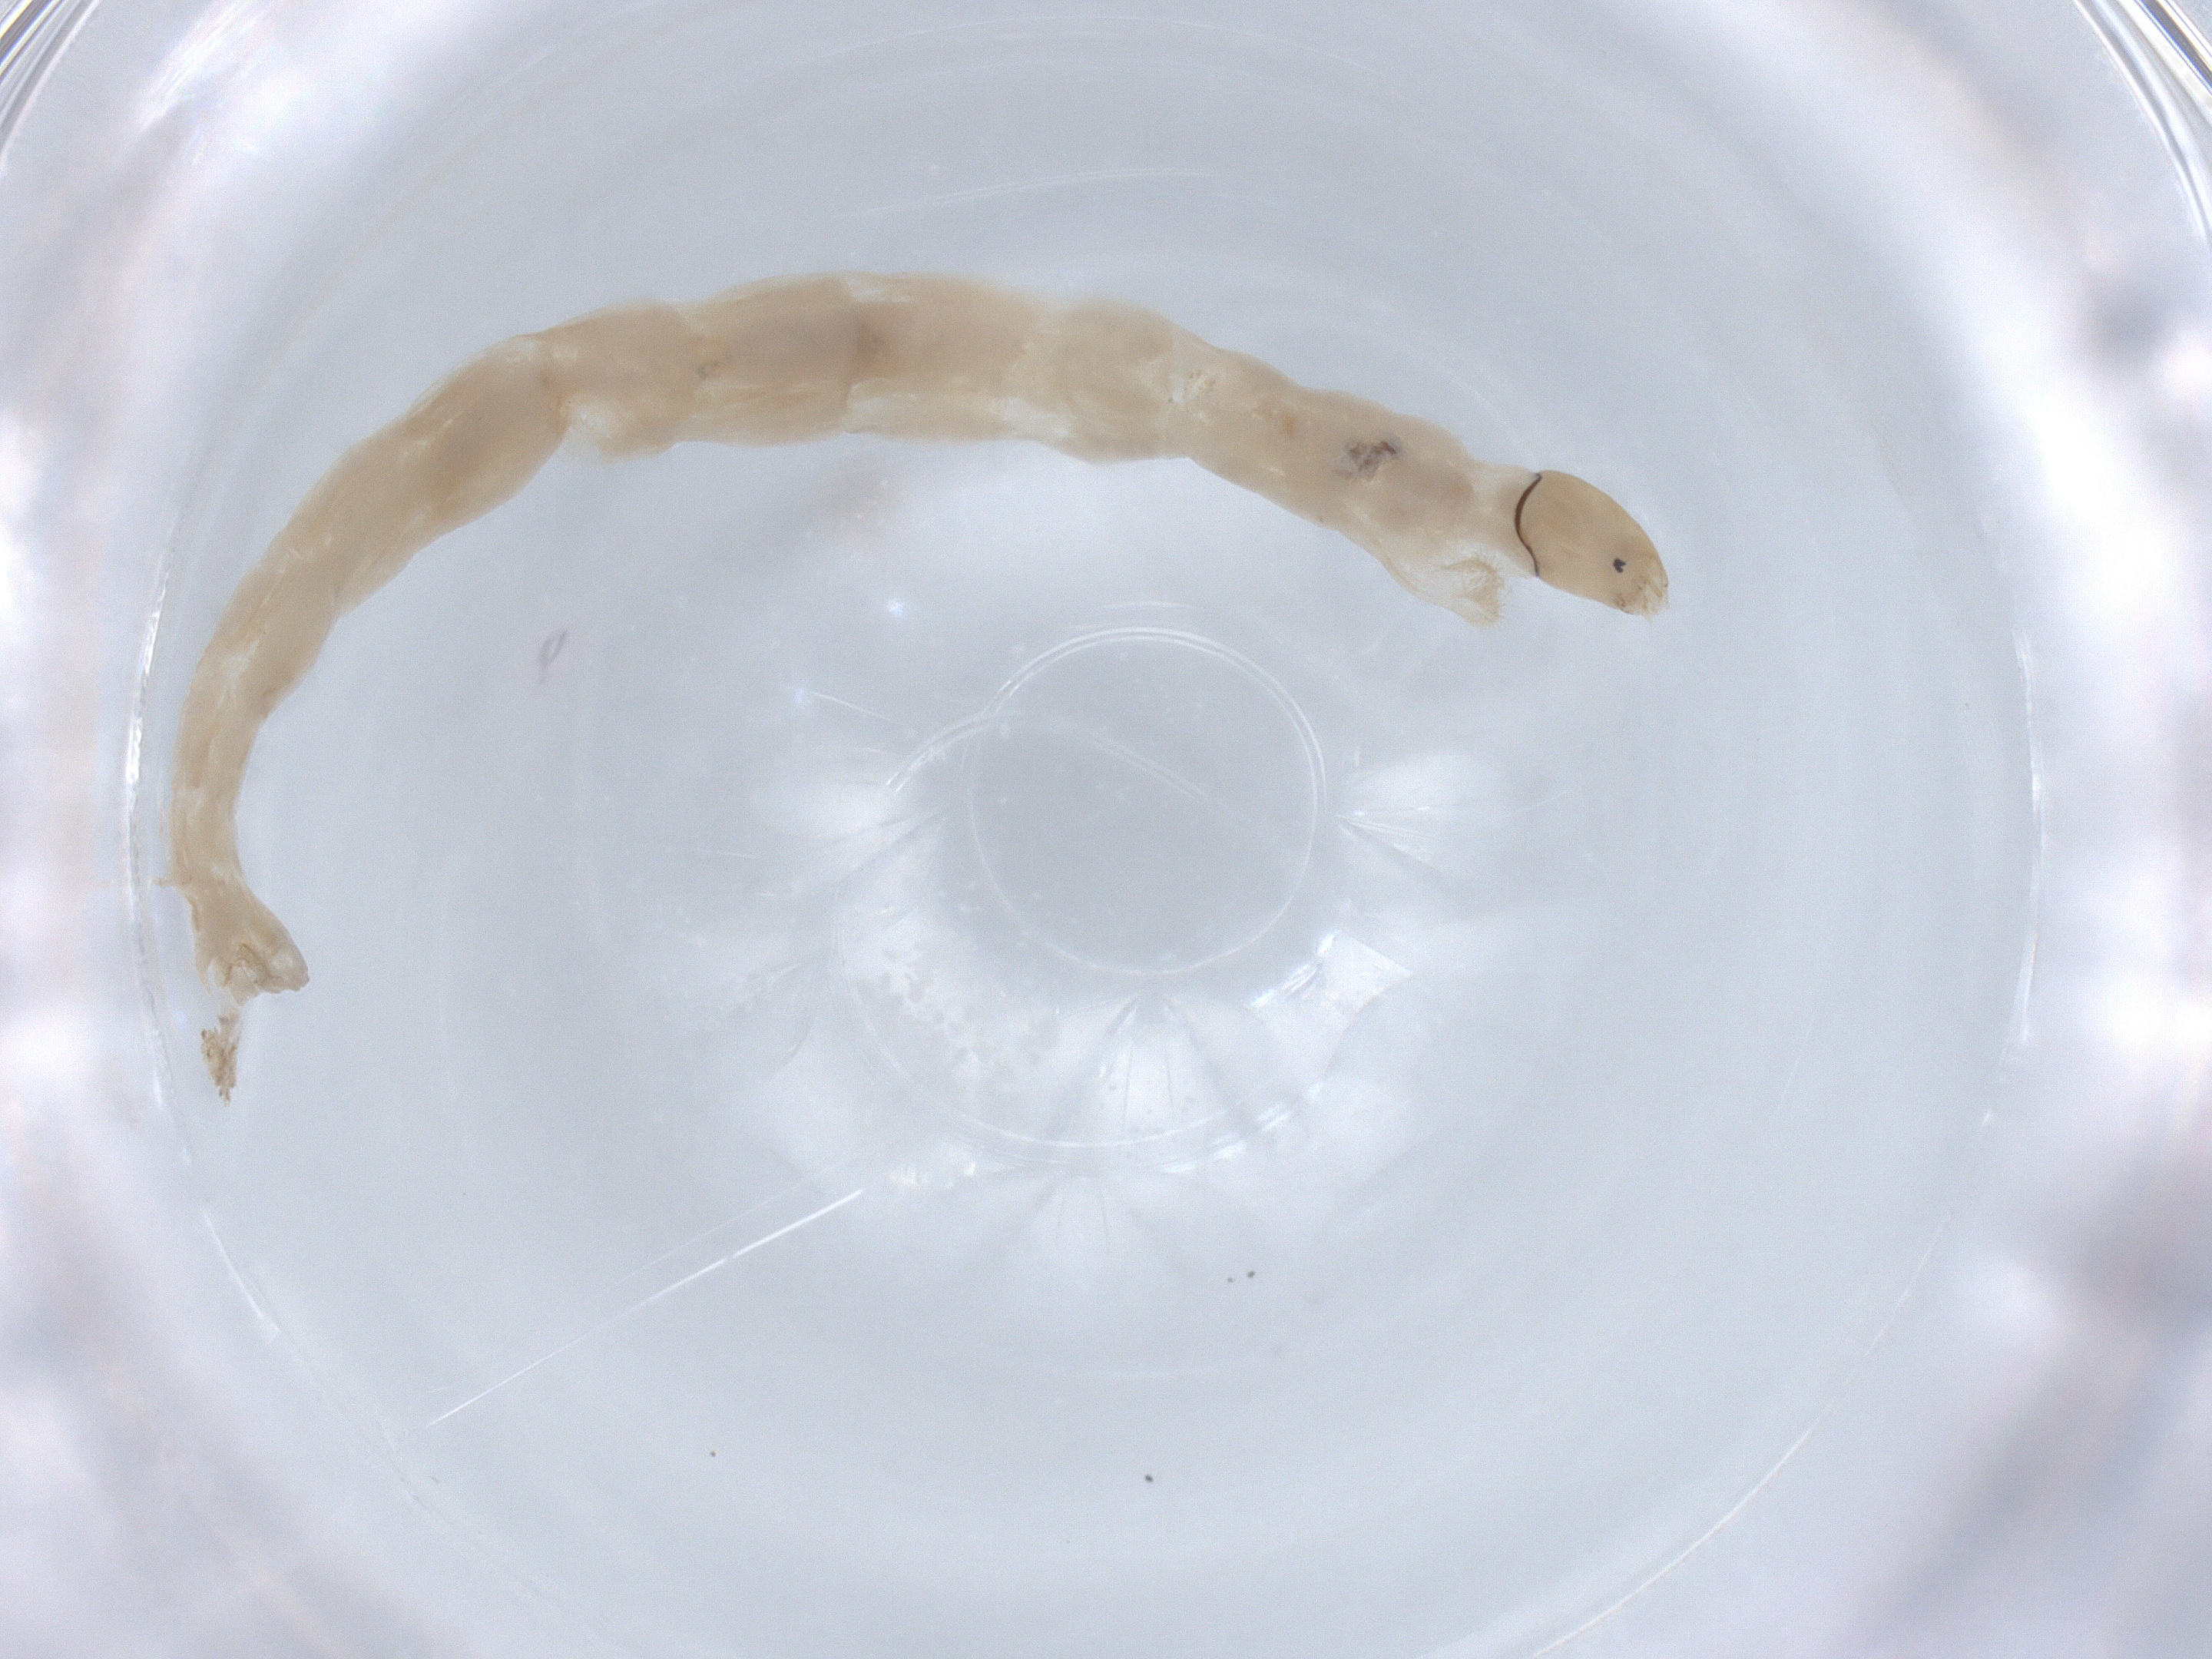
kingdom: Animalia
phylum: Arthropoda
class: Insecta
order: Diptera
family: Chironomidae
